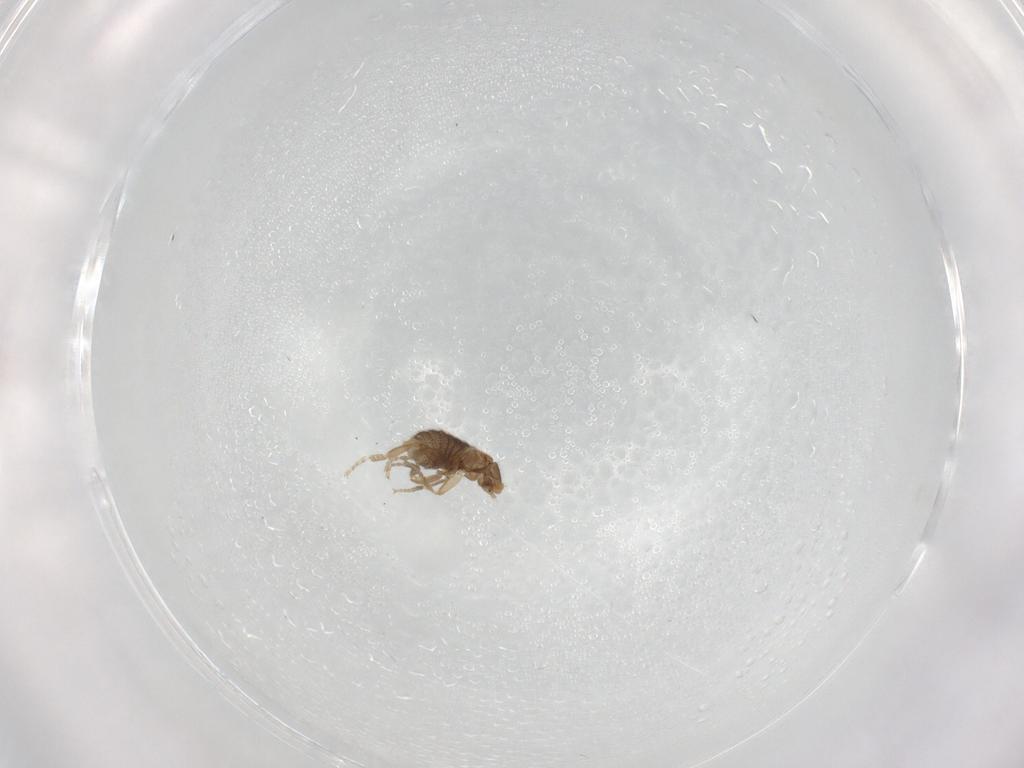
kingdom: Animalia
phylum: Arthropoda
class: Insecta
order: Diptera
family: Phoridae
